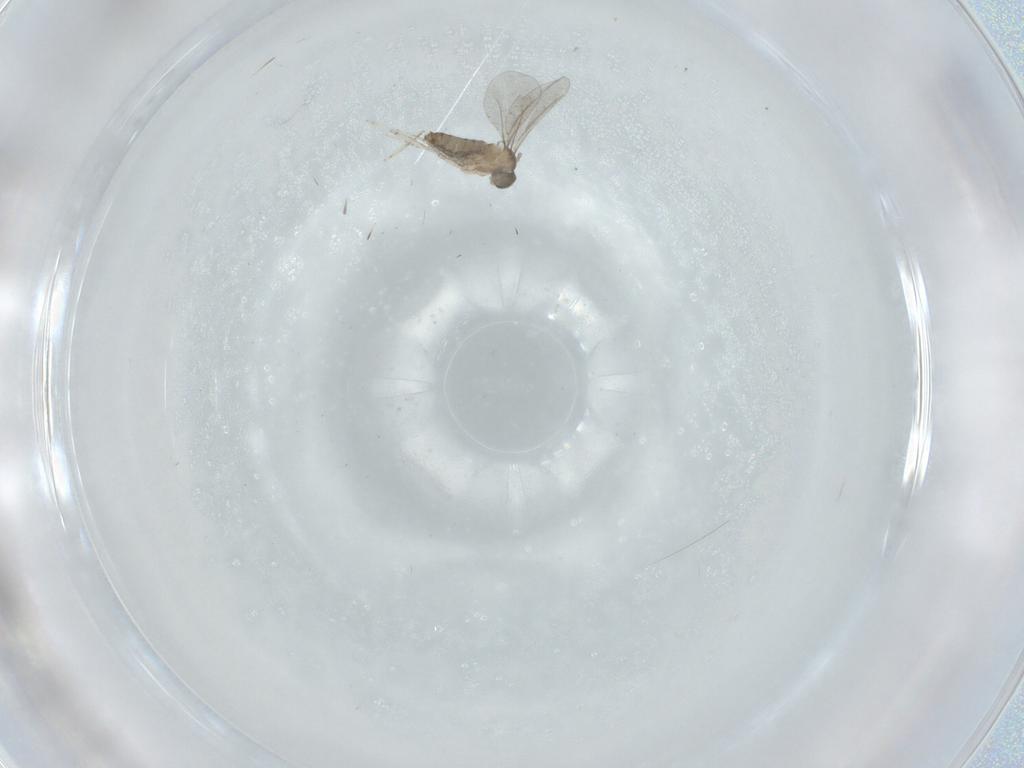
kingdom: Animalia
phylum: Arthropoda
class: Insecta
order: Diptera
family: Cecidomyiidae
